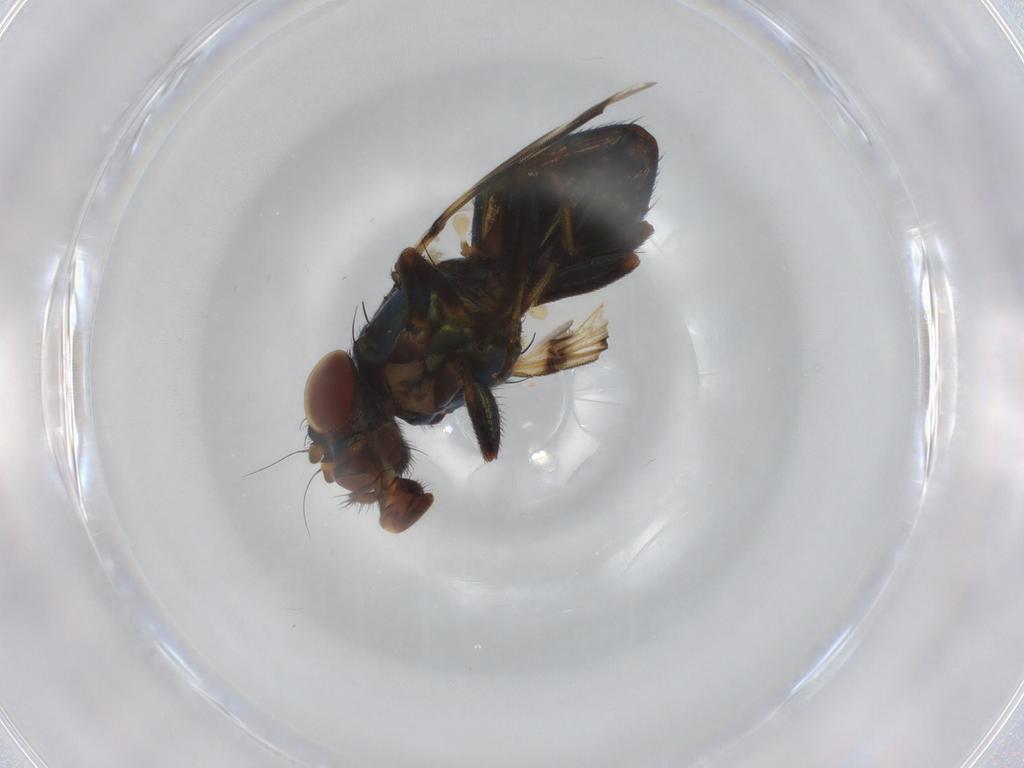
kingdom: Animalia
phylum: Arthropoda
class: Insecta
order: Diptera
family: Ulidiidae
